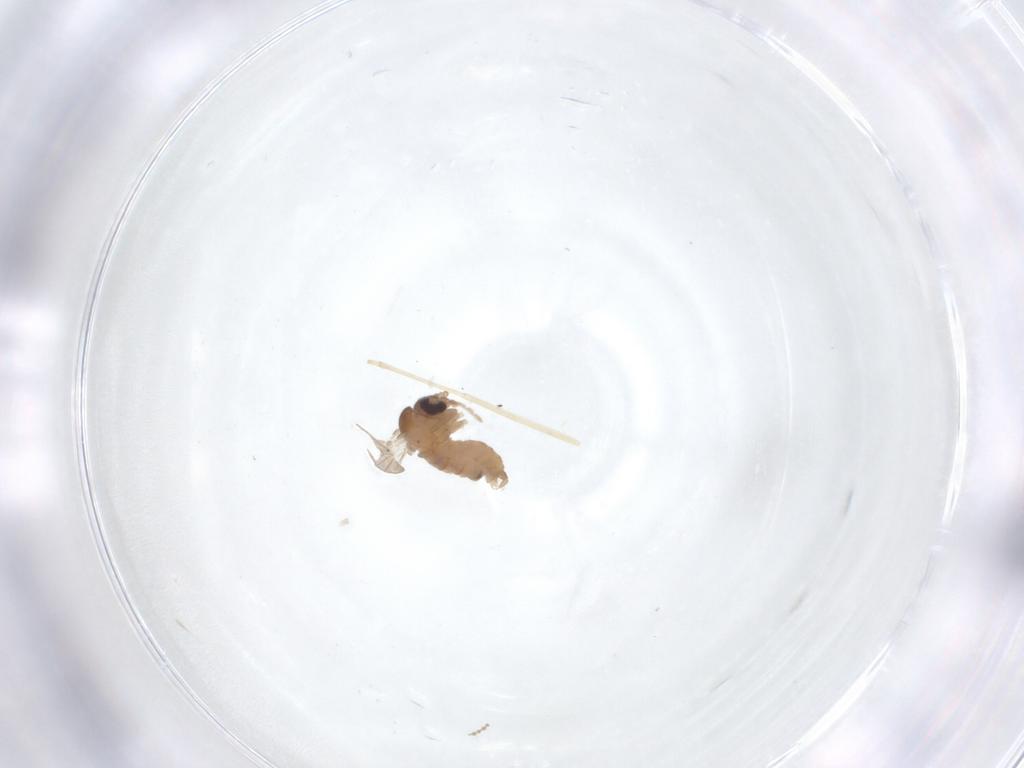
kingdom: Animalia
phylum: Arthropoda
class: Insecta
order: Diptera
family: Psychodidae
